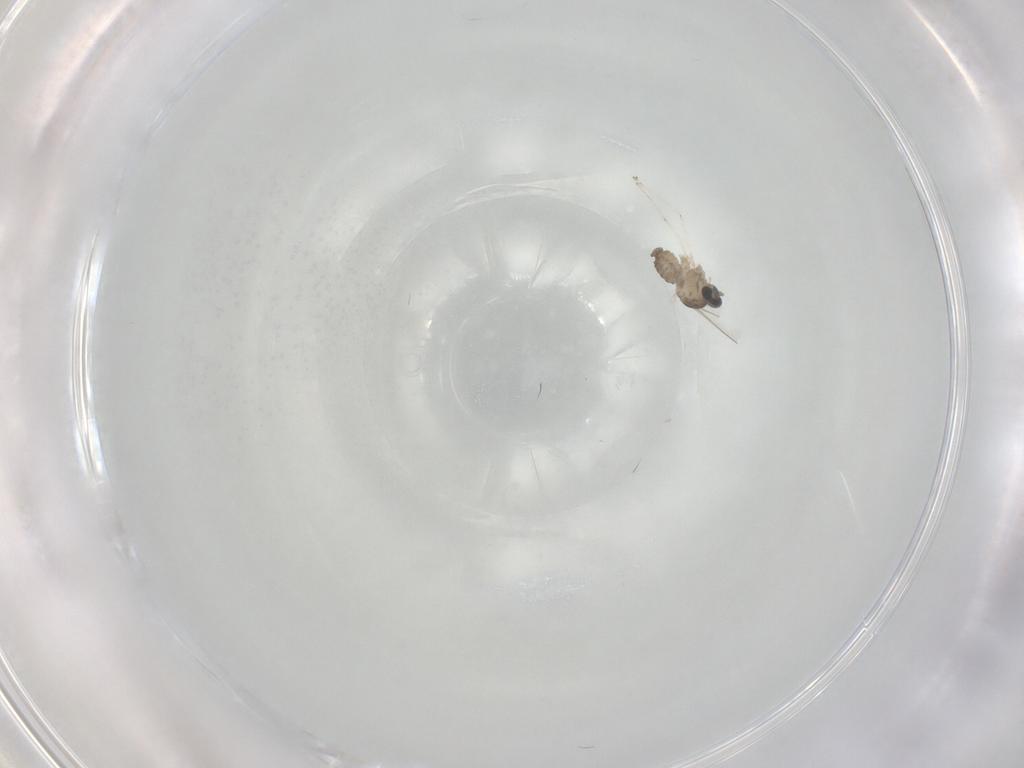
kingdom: Animalia
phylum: Arthropoda
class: Insecta
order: Diptera
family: Cecidomyiidae
